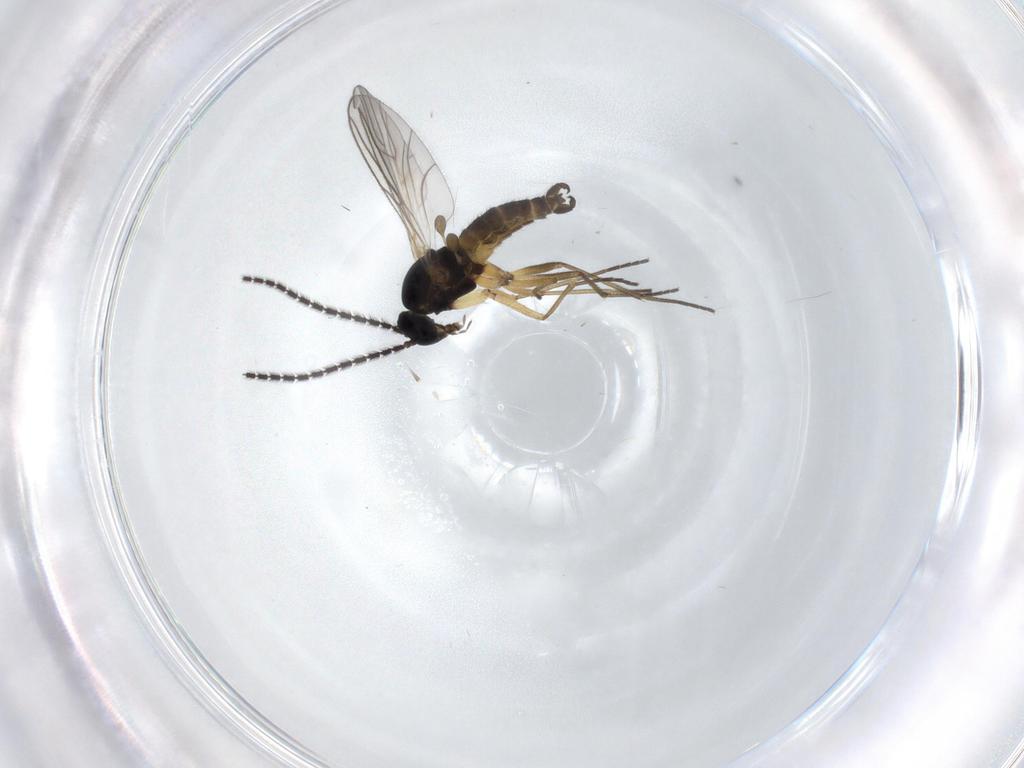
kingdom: Animalia
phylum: Arthropoda
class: Insecta
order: Diptera
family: Sciaridae
